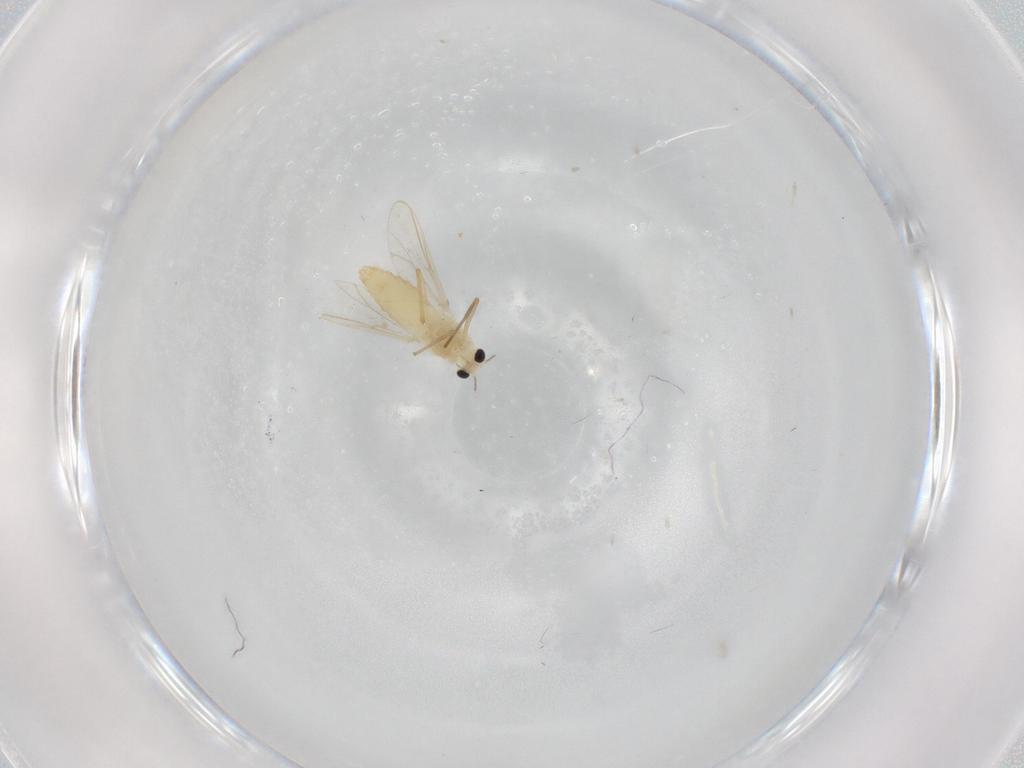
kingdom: Animalia
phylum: Arthropoda
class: Insecta
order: Diptera
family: Chironomidae
